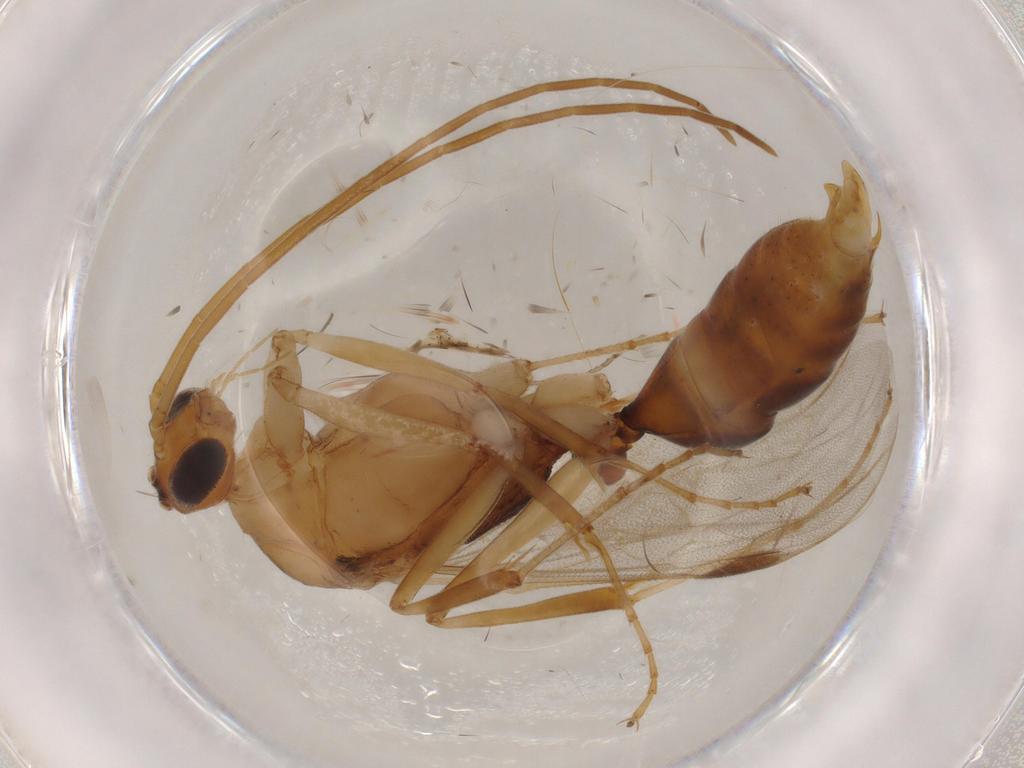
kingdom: Animalia
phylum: Arthropoda
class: Insecta
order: Hymenoptera
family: Formicidae
